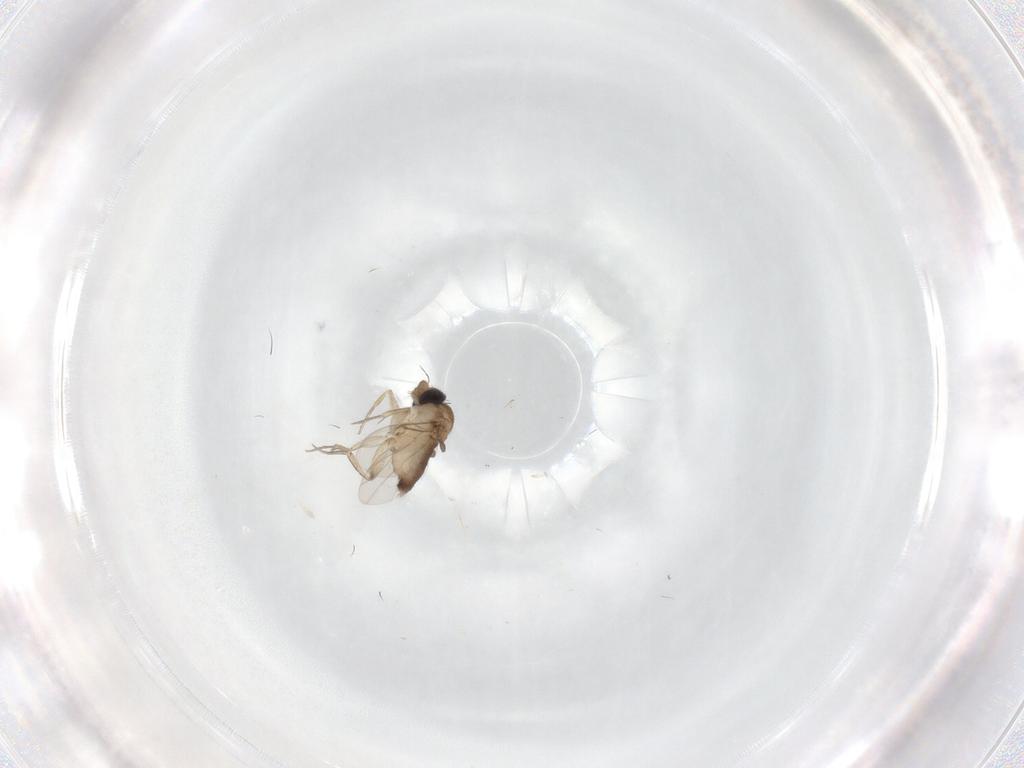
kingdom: Animalia
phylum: Arthropoda
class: Insecta
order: Diptera
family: Phoridae
